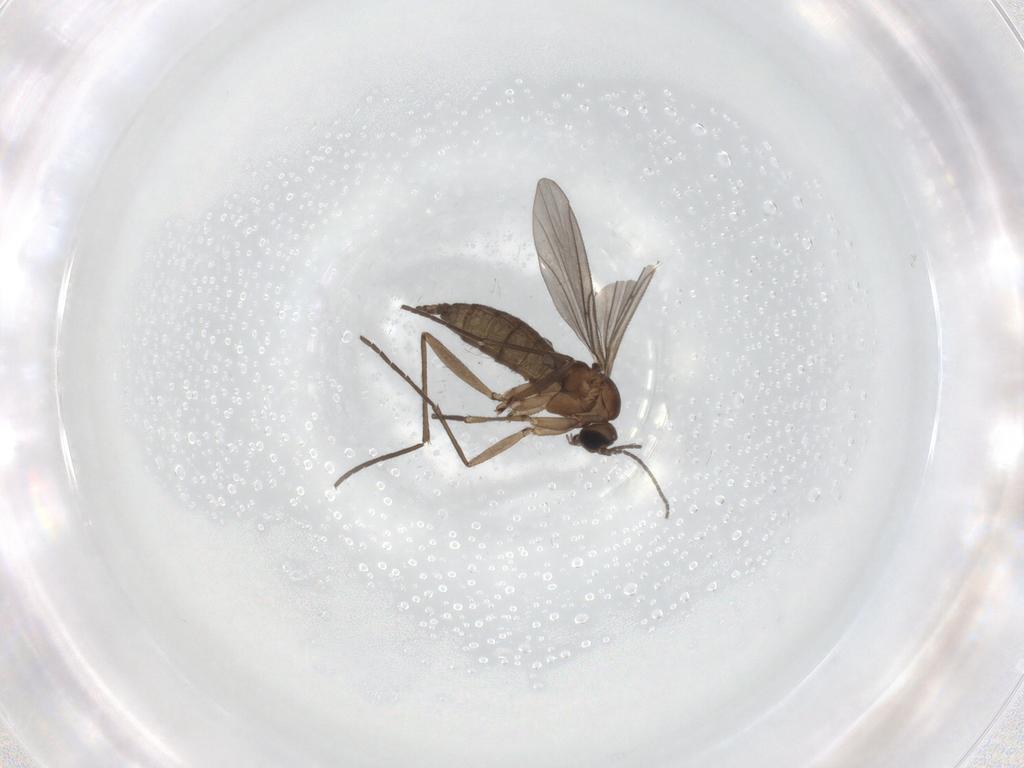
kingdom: Animalia
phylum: Arthropoda
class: Insecta
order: Diptera
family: Sciaridae
